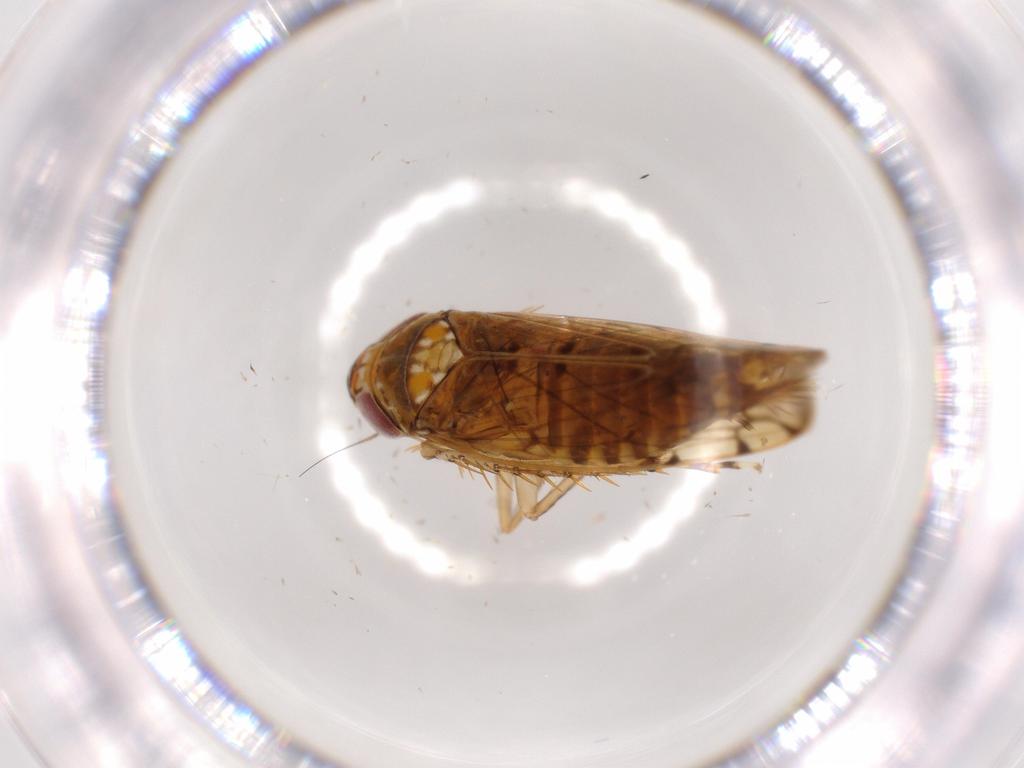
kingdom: Animalia
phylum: Arthropoda
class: Insecta
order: Hemiptera
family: Cicadellidae
